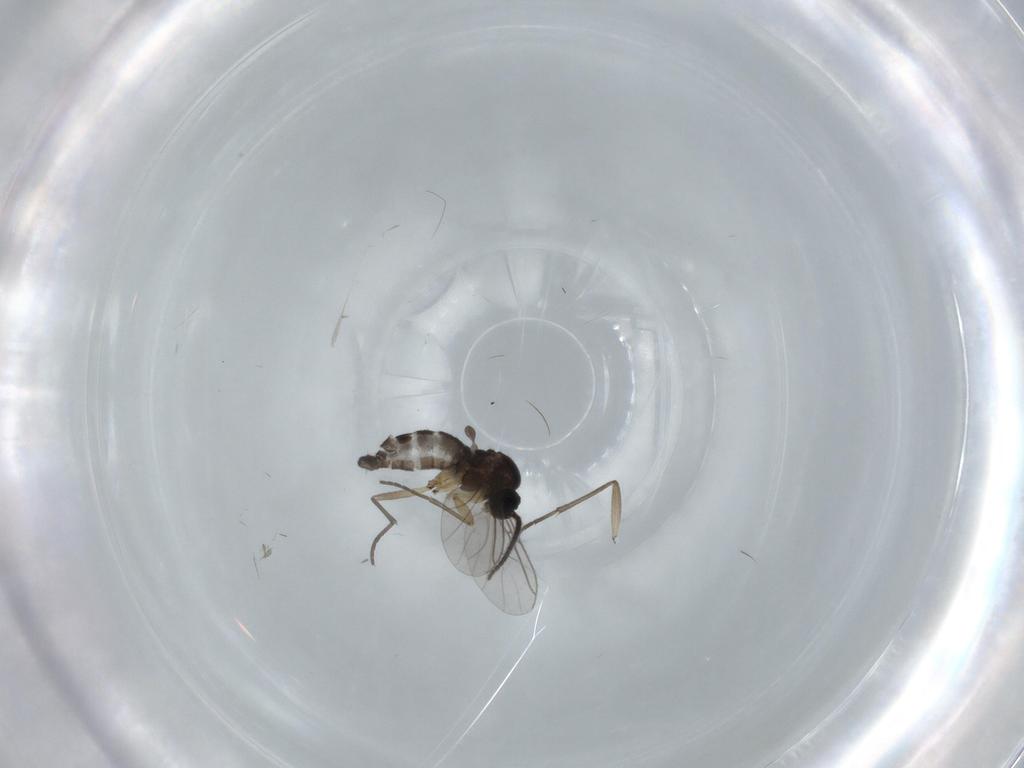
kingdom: Animalia
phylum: Arthropoda
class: Insecta
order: Diptera
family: Sciaridae
